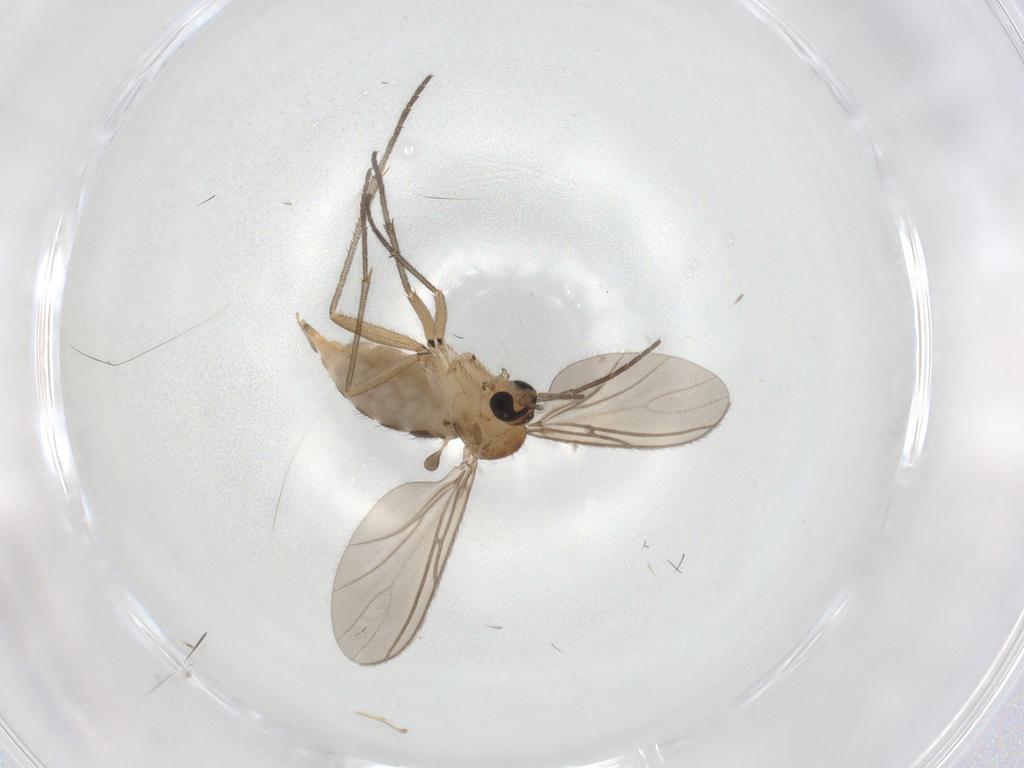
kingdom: Animalia
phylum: Arthropoda
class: Insecta
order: Diptera
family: Sciaridae
